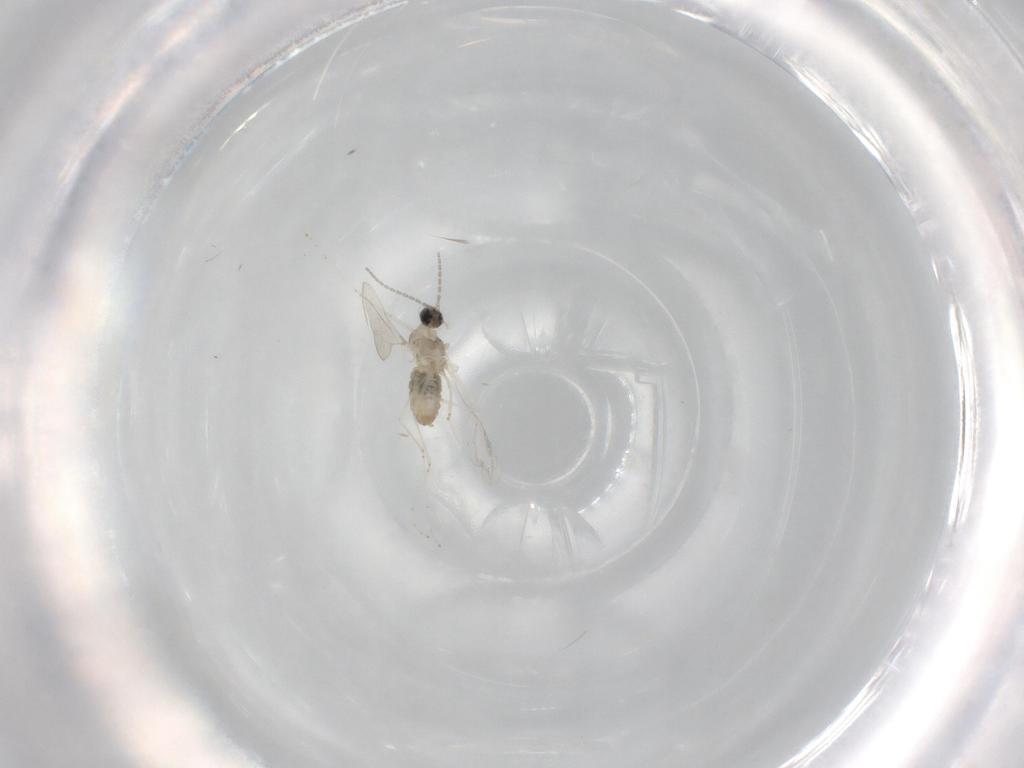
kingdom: Animalia
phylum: Arthropoda
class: Insecta
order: Diptera
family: Cecidomyiidae
